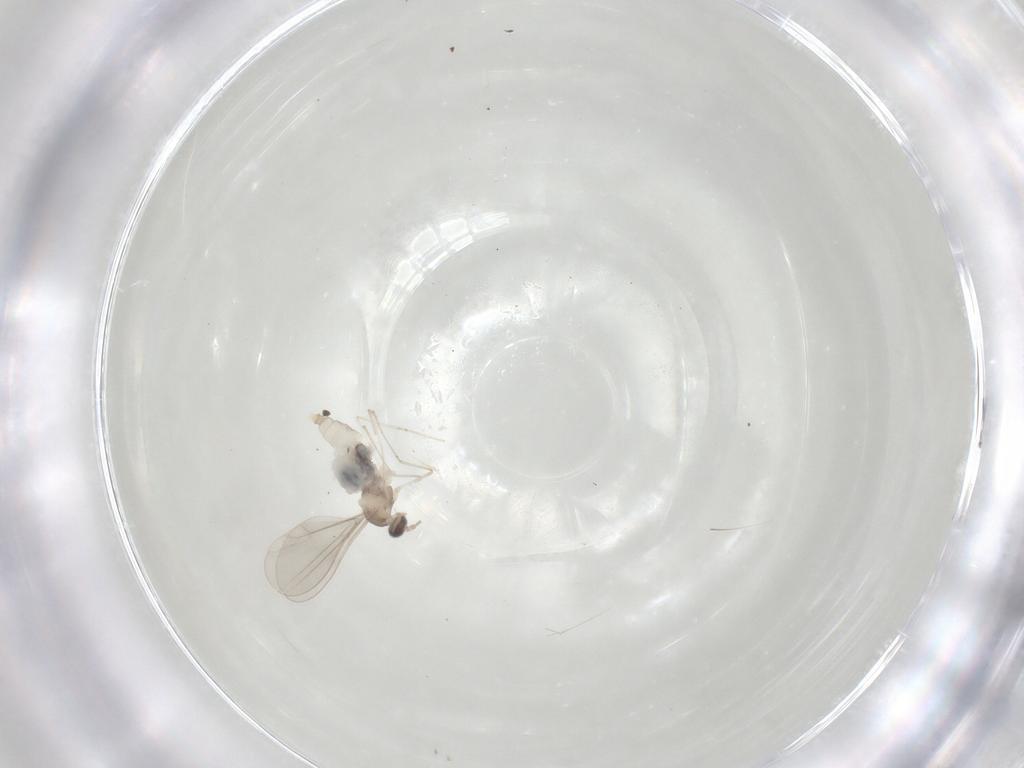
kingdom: Animalia
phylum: Arthropoda
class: Insecta
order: Diptera
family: Cecidomyiidae
